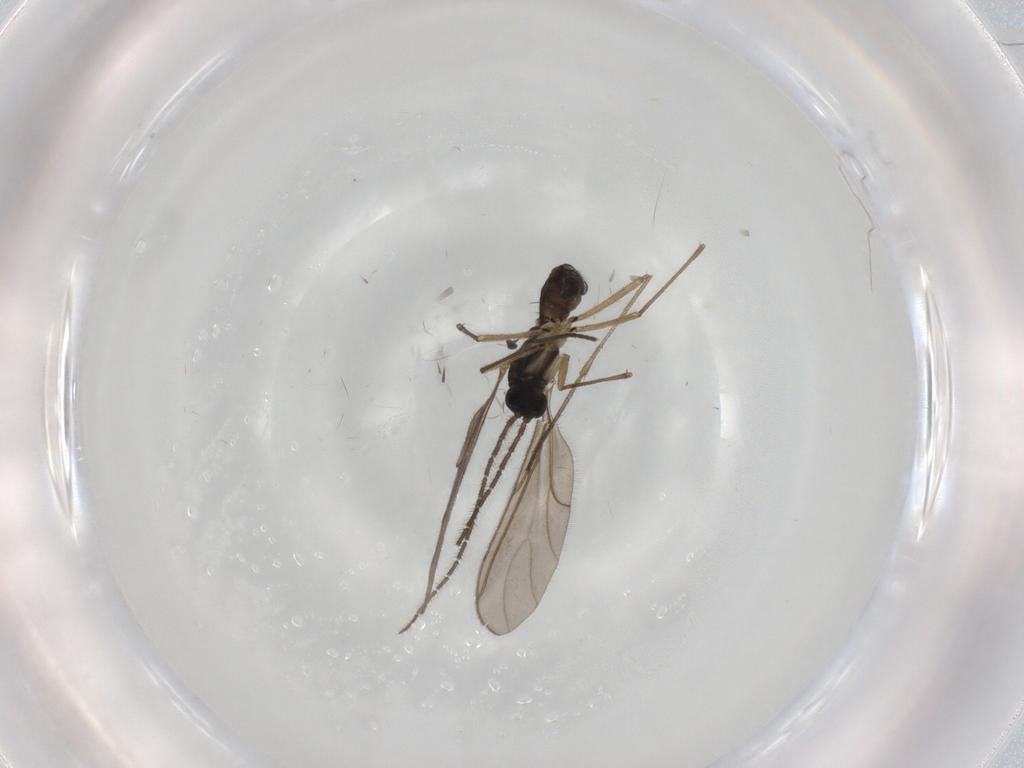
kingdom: Animalia
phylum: Arthropoda
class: Insecta
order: Diptera
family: Sciaridae
